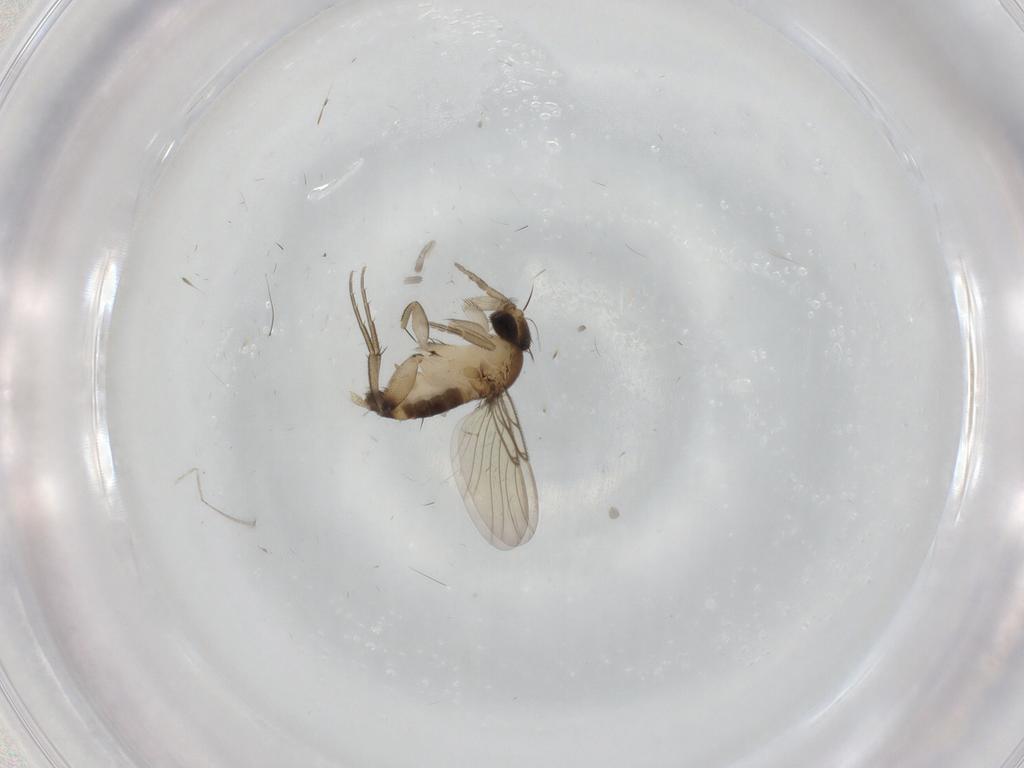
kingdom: Animalia
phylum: Arthropoda
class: Insecta
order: Diptera
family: Phoridae
